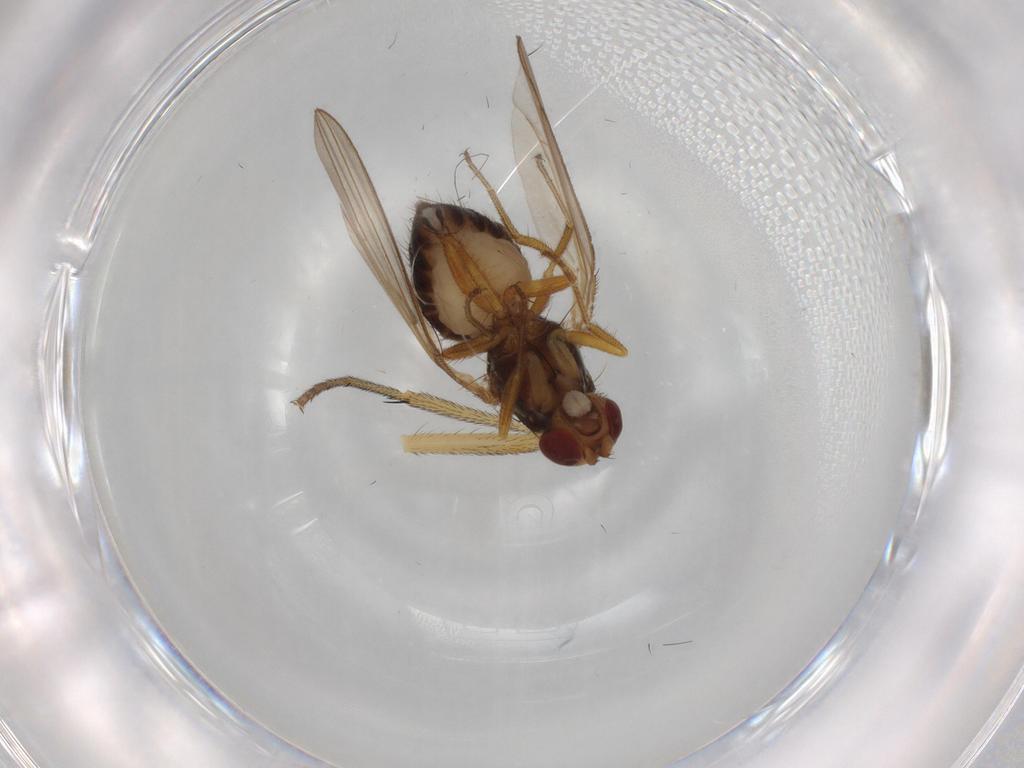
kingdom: Animalia
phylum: Arthropoda
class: Insecta
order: Diptera
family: Drosophilidae
